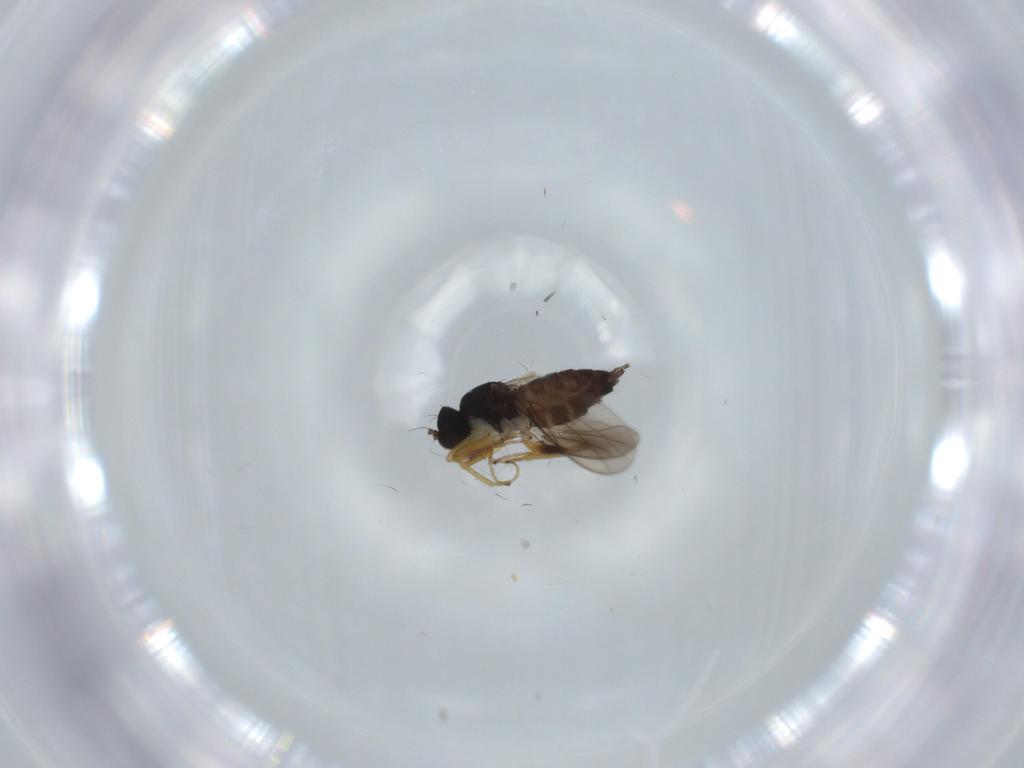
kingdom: Animalia
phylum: Arthropoda
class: Insecta
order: Diptera
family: Hybotidae
